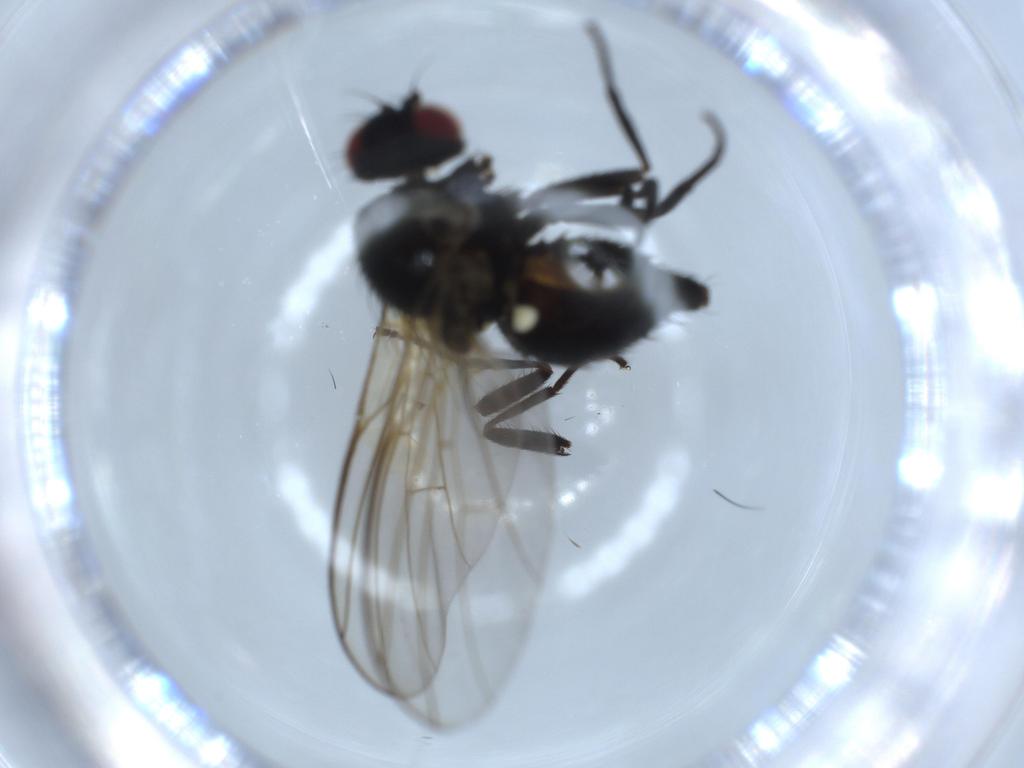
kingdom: Animalia
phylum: Arthropoda
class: Insecta
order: Diptera
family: Agromyzidae
